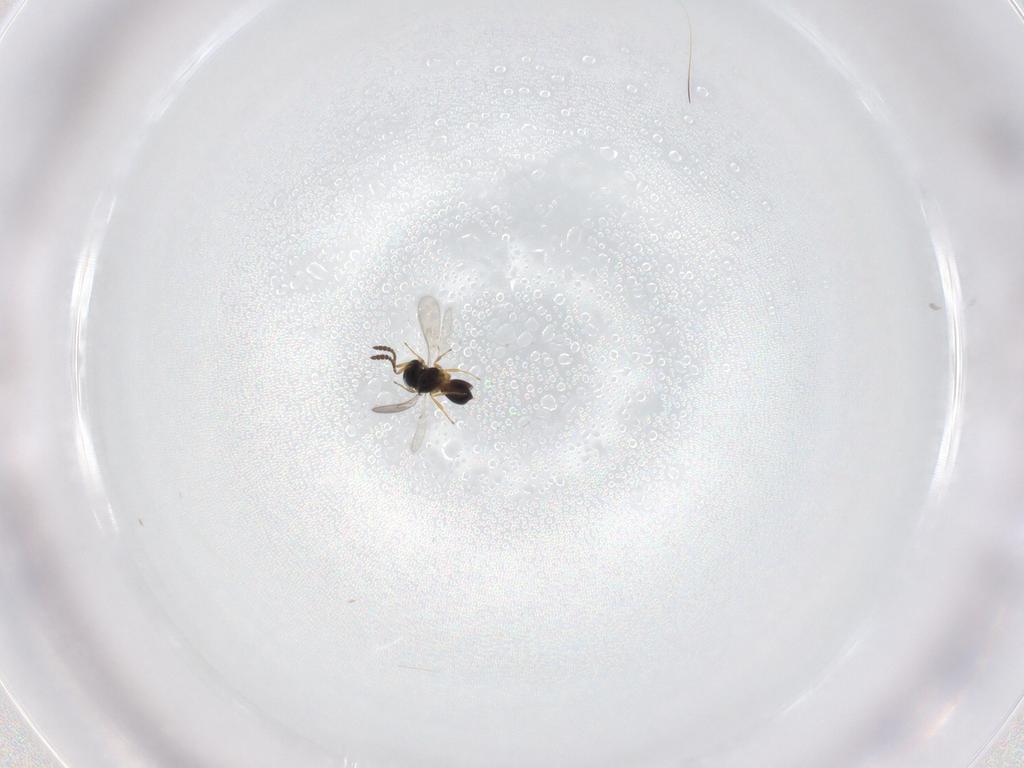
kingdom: Animalia
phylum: Arthropoda
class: Insecta
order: Hymenoptera
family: Scelionidae
